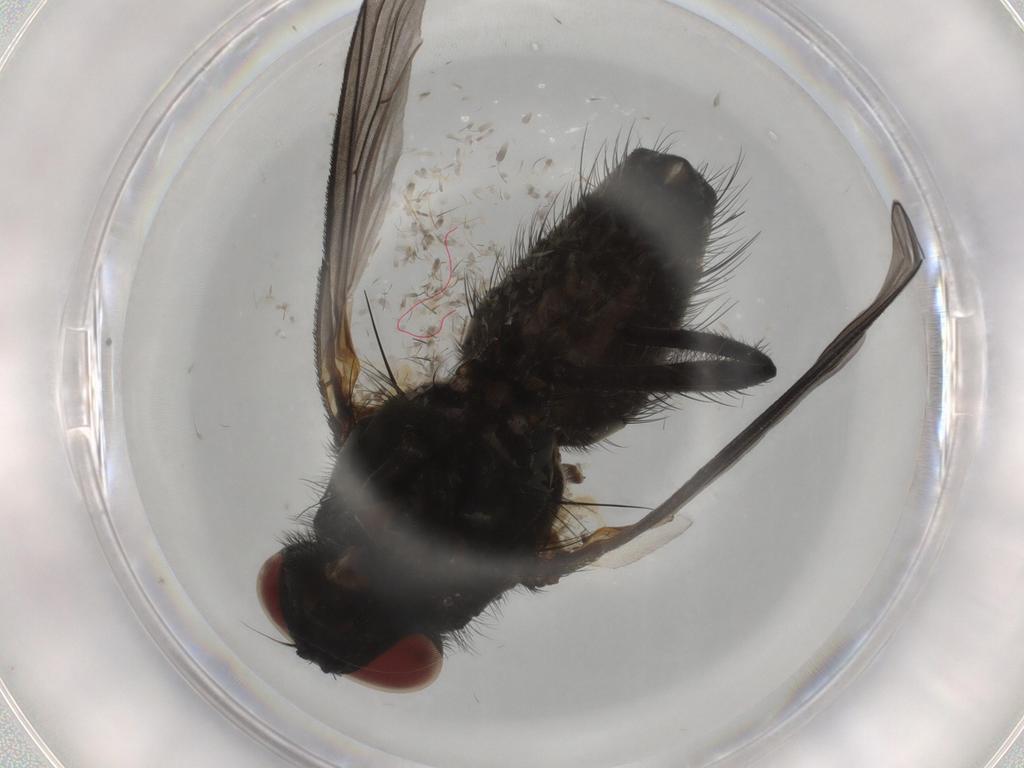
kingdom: Animalia
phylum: Arthropoda
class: Insecta
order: Diptera
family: Muscidae
